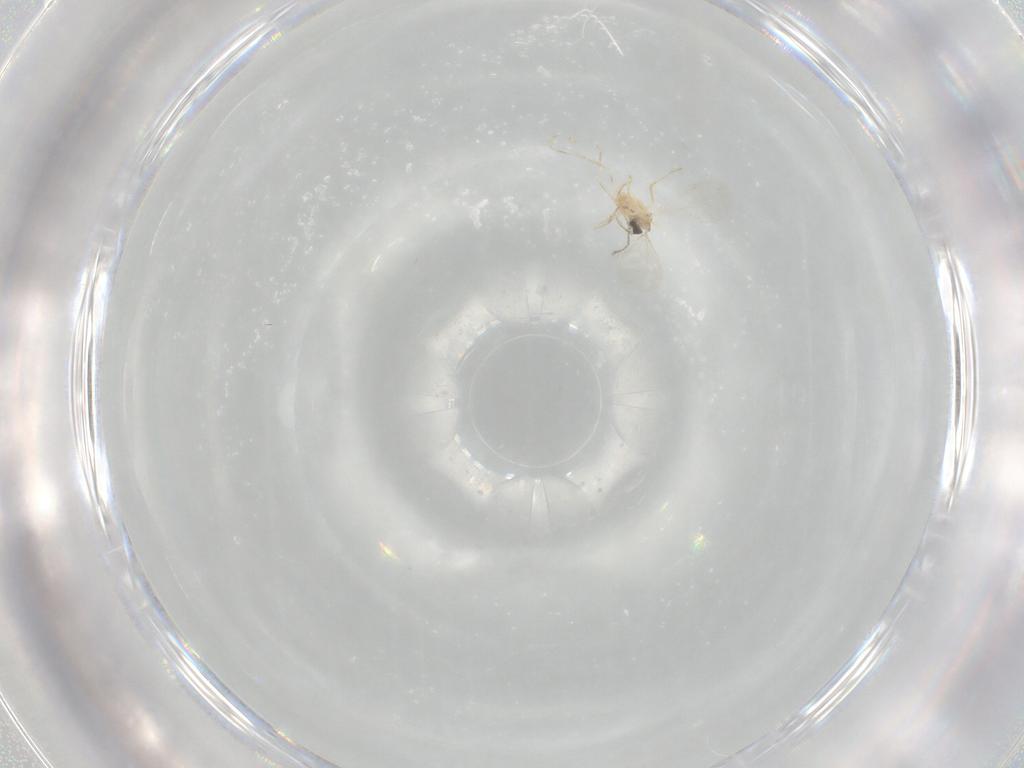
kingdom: Animalia
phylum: Arthropoda
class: Insecta
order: Diptera
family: Cecidomyiidae
